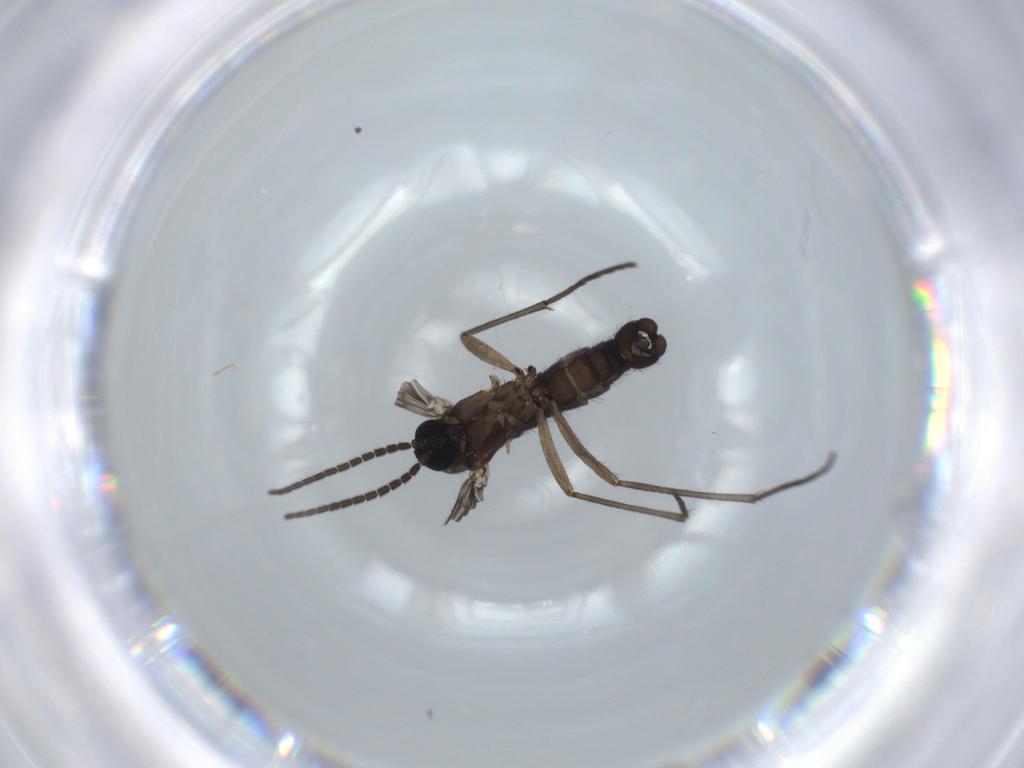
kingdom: Animalia
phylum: Arthropoda
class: Insecta
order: Diptera
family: Sciaridae
